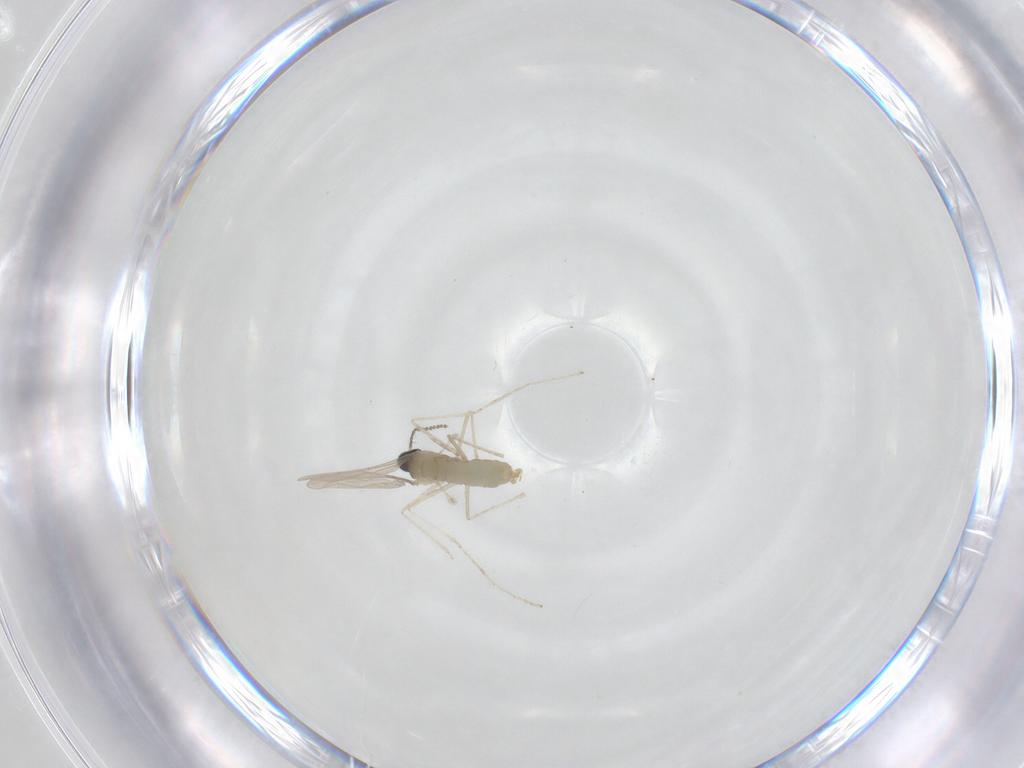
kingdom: Animalia
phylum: Arthropoda
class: Insecta
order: Diptera
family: Cecidomyiidae
